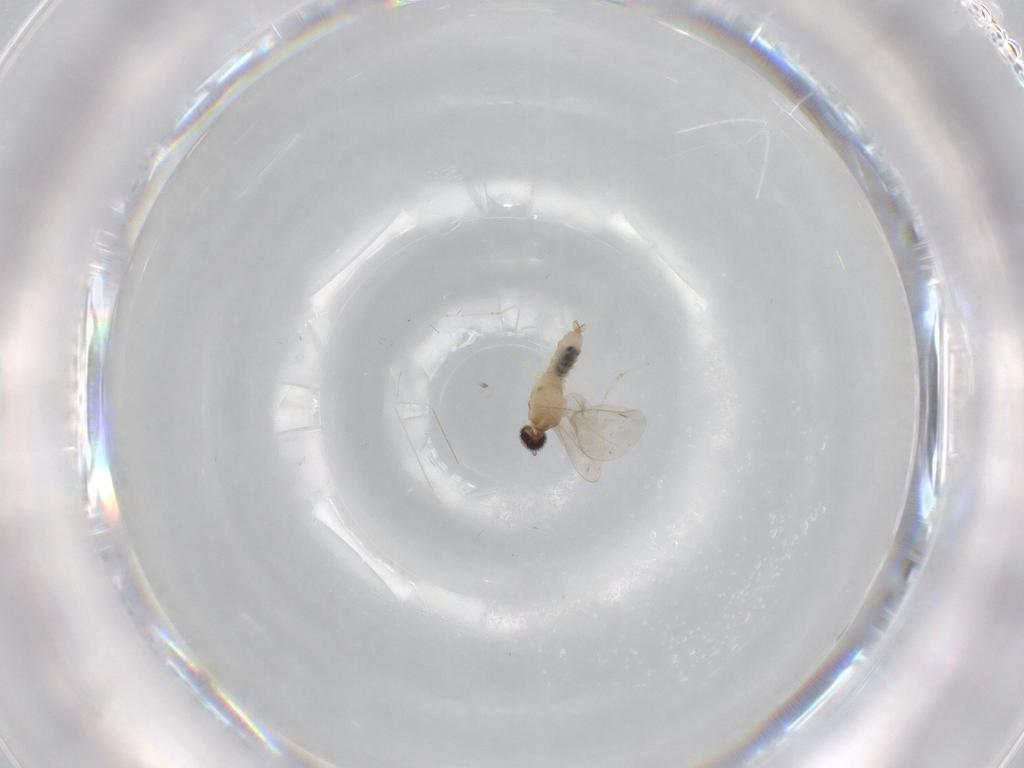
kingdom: Animalia
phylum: Arthropoda
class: Insecta
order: Diptera
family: Cecidomyiidae
